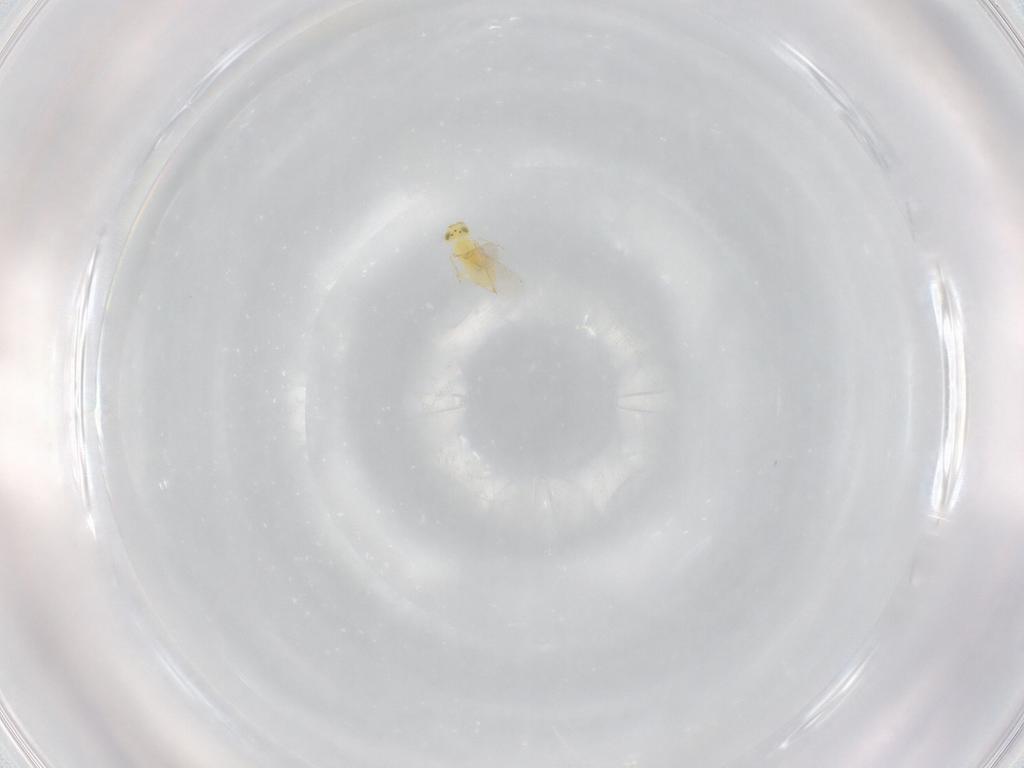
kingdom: Animalia
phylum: Arthropoda
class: Insecta
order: Hymenoptera
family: Aphelinidae
